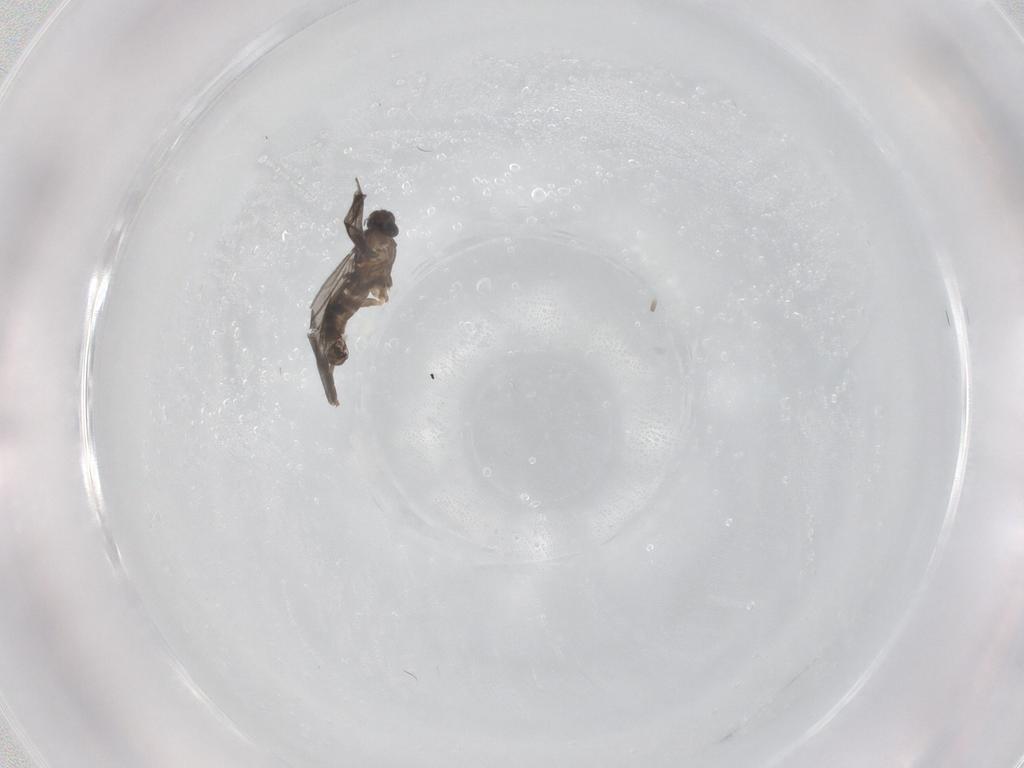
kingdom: Animalia
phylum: Arthropoda
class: Insecta
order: Diptera
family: Phoridae
